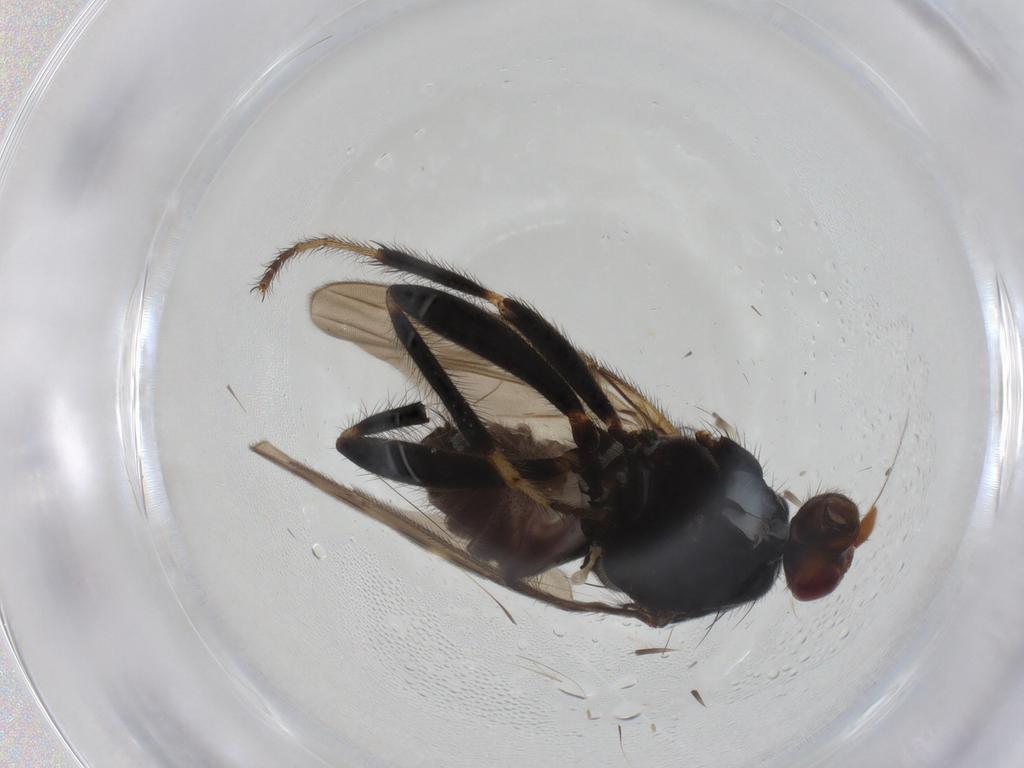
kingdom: Animalia
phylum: Arthropoda
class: Insecta
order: Diptera
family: Sphaeroceridae
